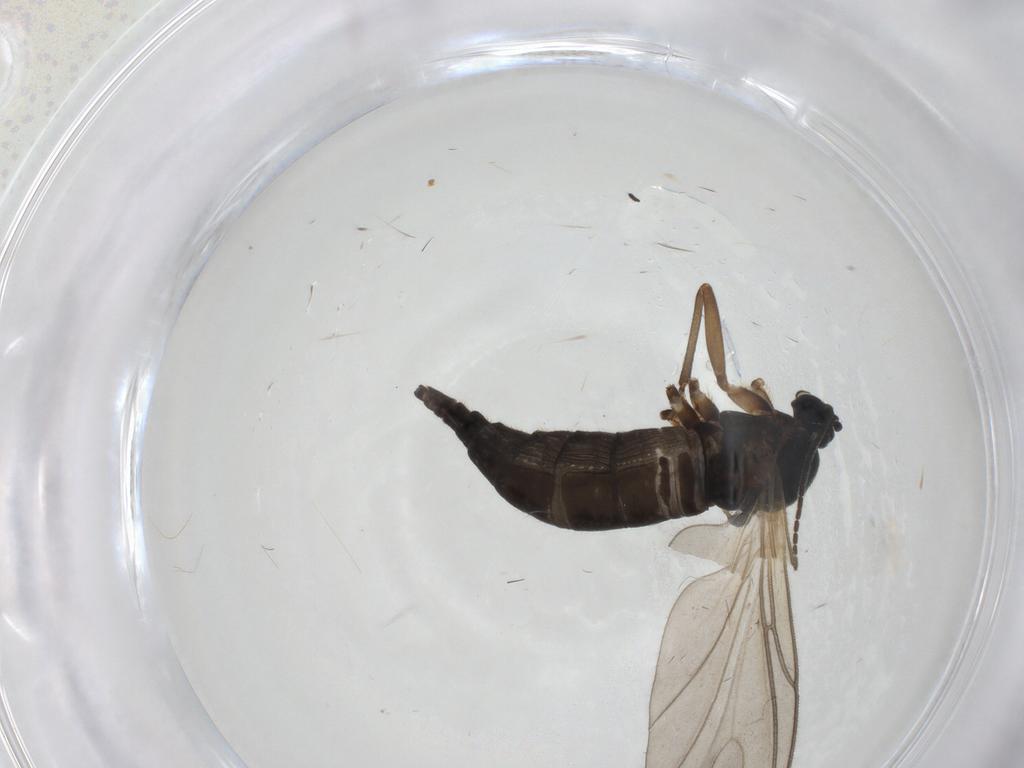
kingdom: Animalia
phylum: Arthropoda
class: Insecta
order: Diptera
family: Sciaridae
